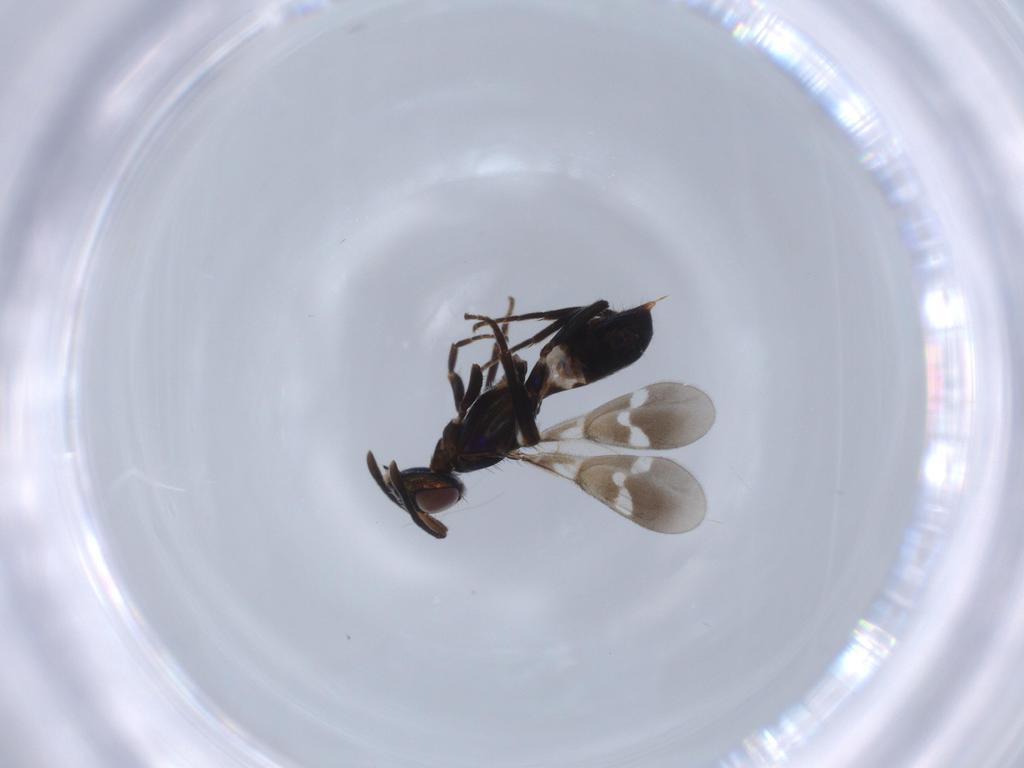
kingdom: Animalia
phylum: Arthropoda
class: Insecta
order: Hymenoptera
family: Eupelmidae
